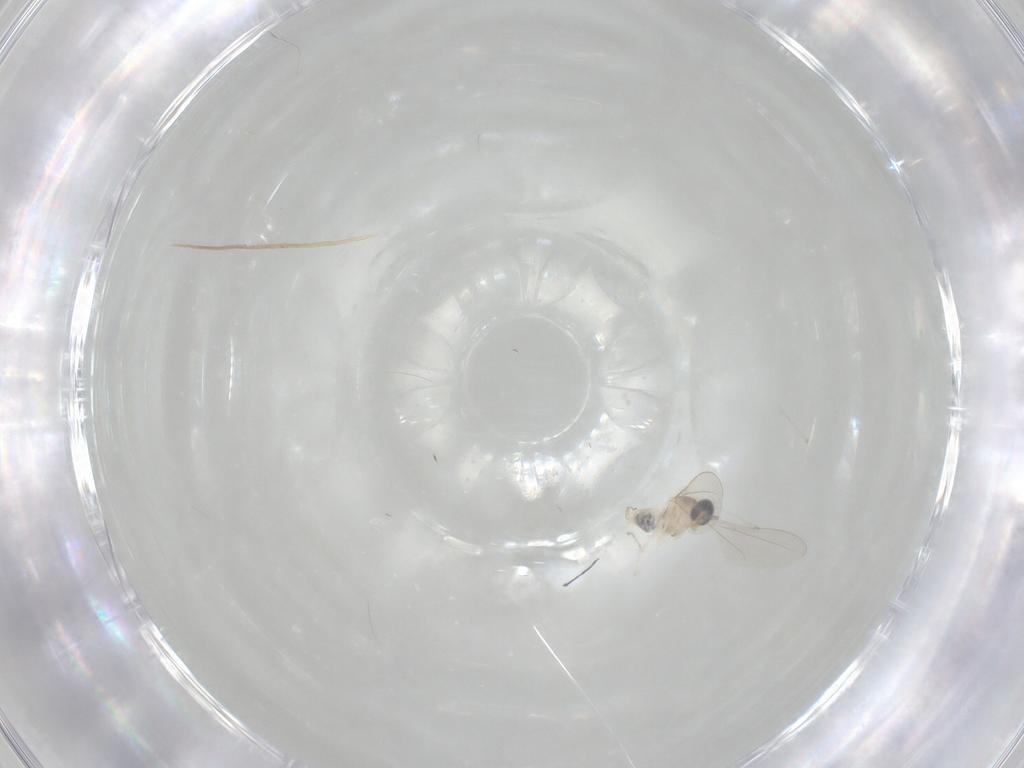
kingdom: Animalia
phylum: Arthropoda
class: Insecta
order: Diptera
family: Cecidomyiidae
